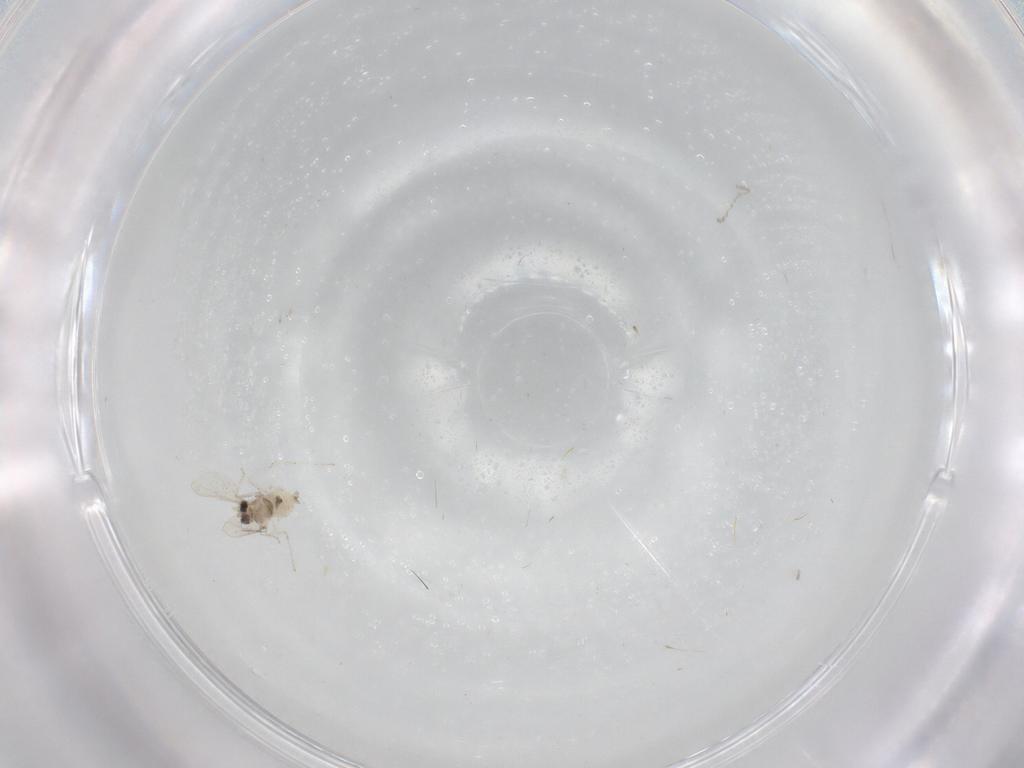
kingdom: Animalia
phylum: Arthropoda
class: Insecta
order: Diptera
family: Cecidomyiidae
